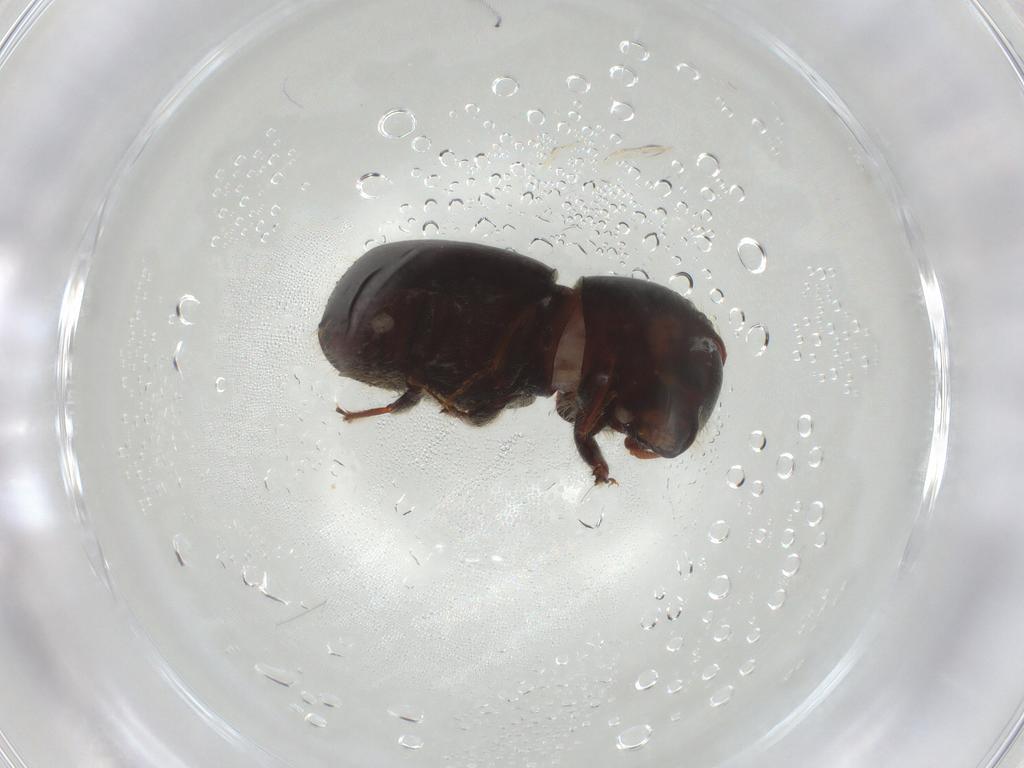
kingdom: Animalia
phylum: Arthropoda
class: Insecta
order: Coleoptera
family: Curculionidae
